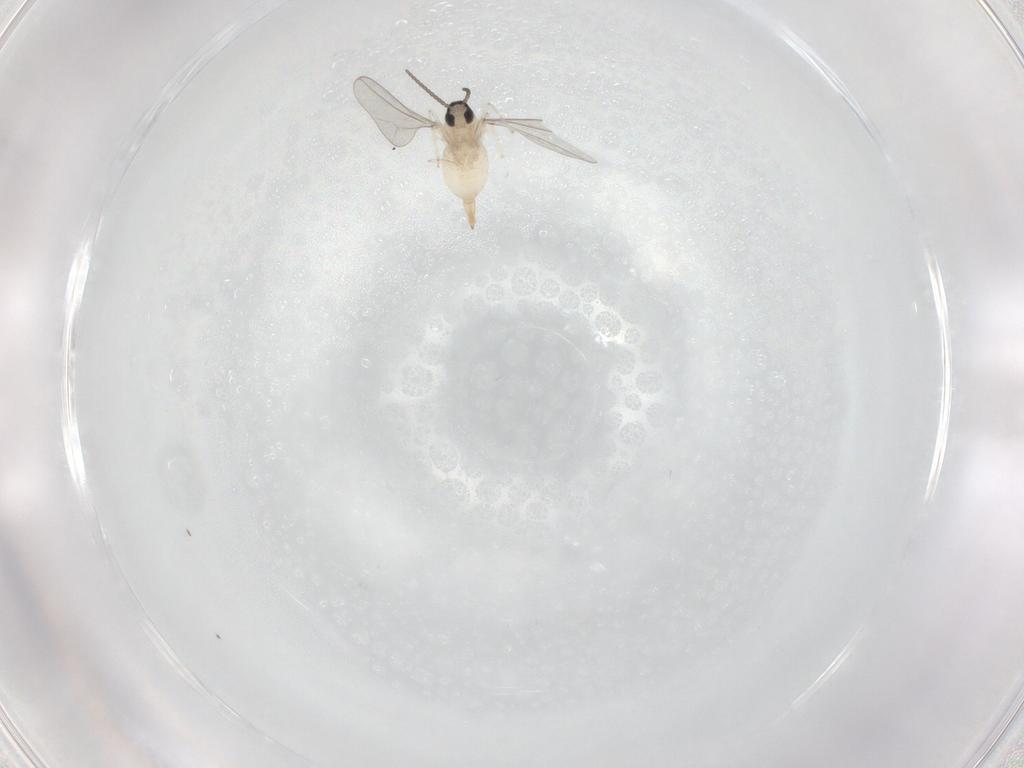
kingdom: Animalia
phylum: Arthropoda
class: Insecta
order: Diptera
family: Cecidomyiidae
